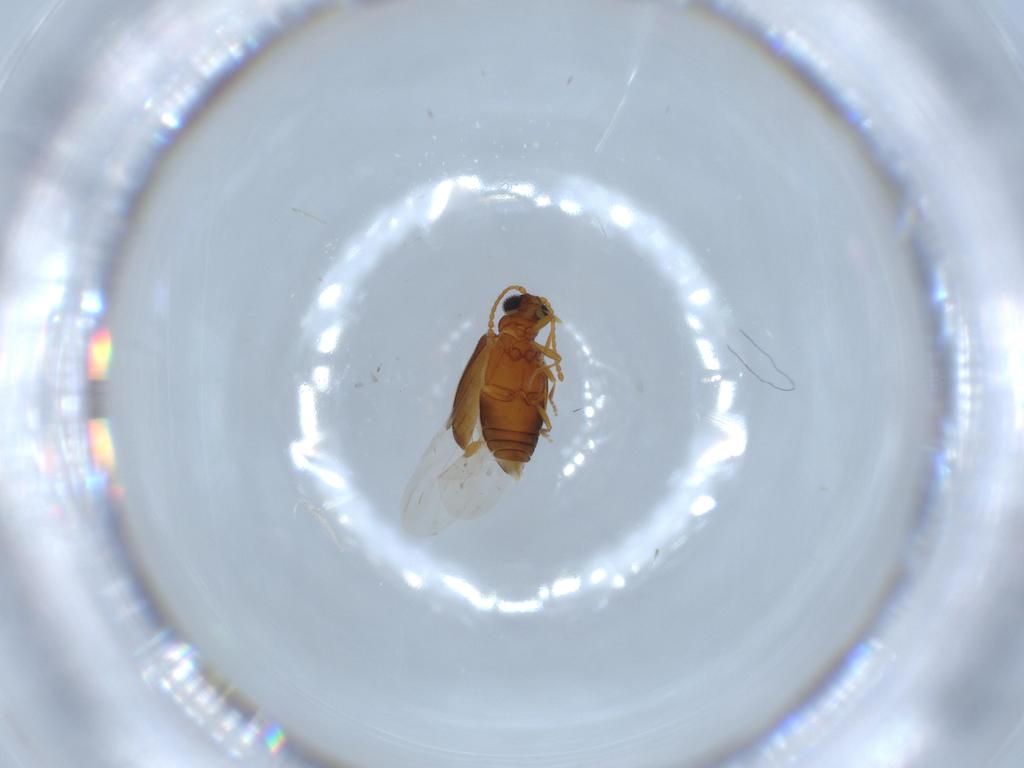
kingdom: Animalia
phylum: Arthropoda
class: Insecta
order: Coleoptera
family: Aderidae
